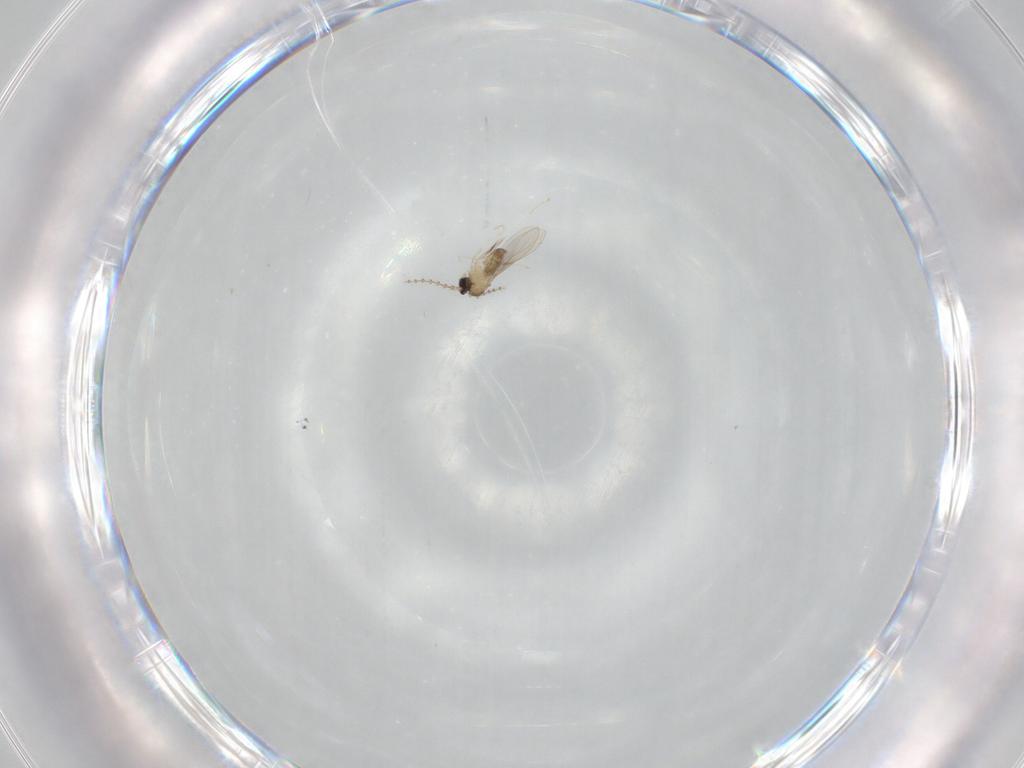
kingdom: Animalia
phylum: Arthropoda
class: Insecta
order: Diptera
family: Cecidomyiidae
